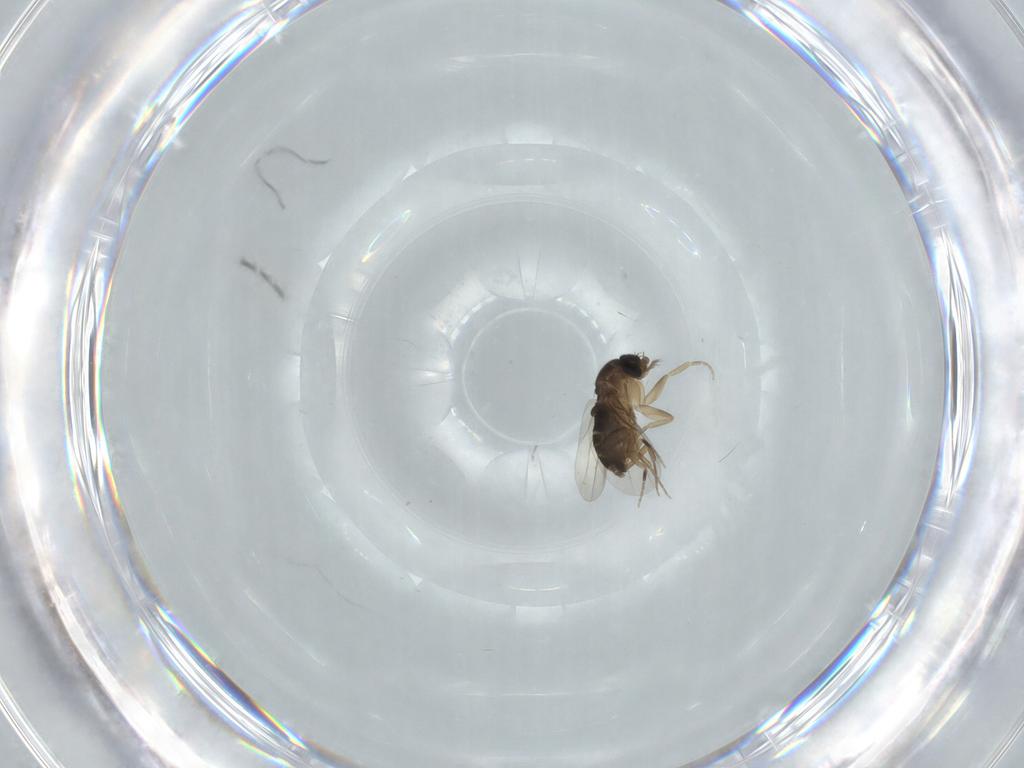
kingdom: Animalia
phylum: Arthropoda
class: Insecta
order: Diptera
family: Phoridae
